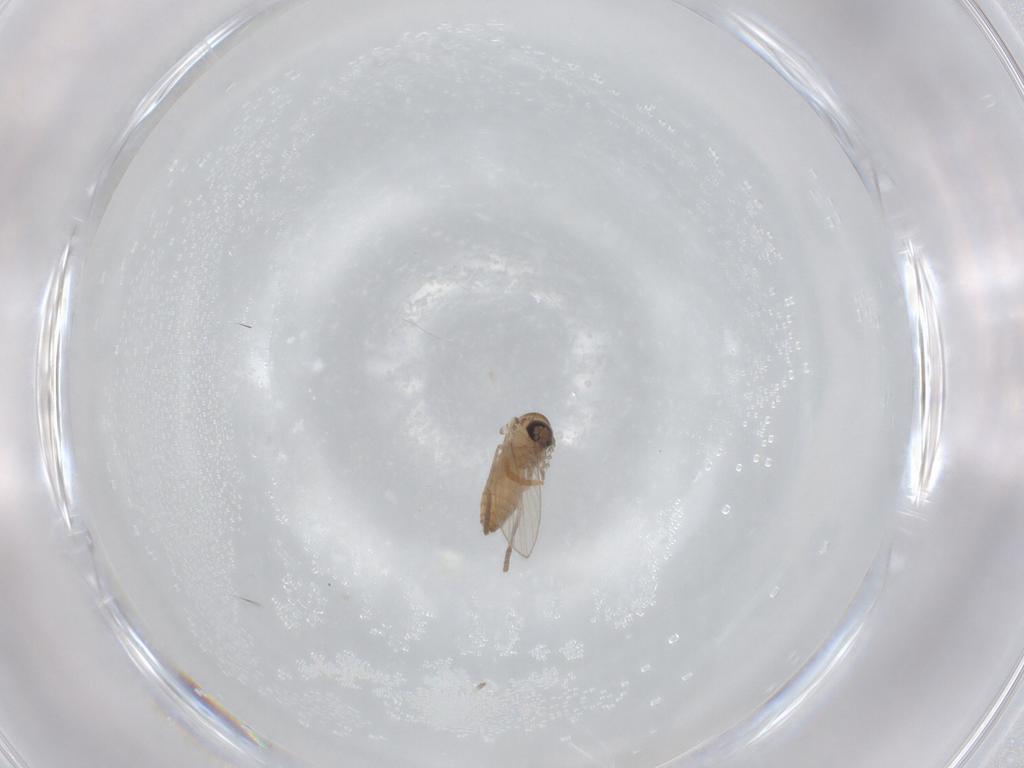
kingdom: Animalia
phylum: Arthropoda
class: Insecta
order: Diptera
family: Psychodidae
